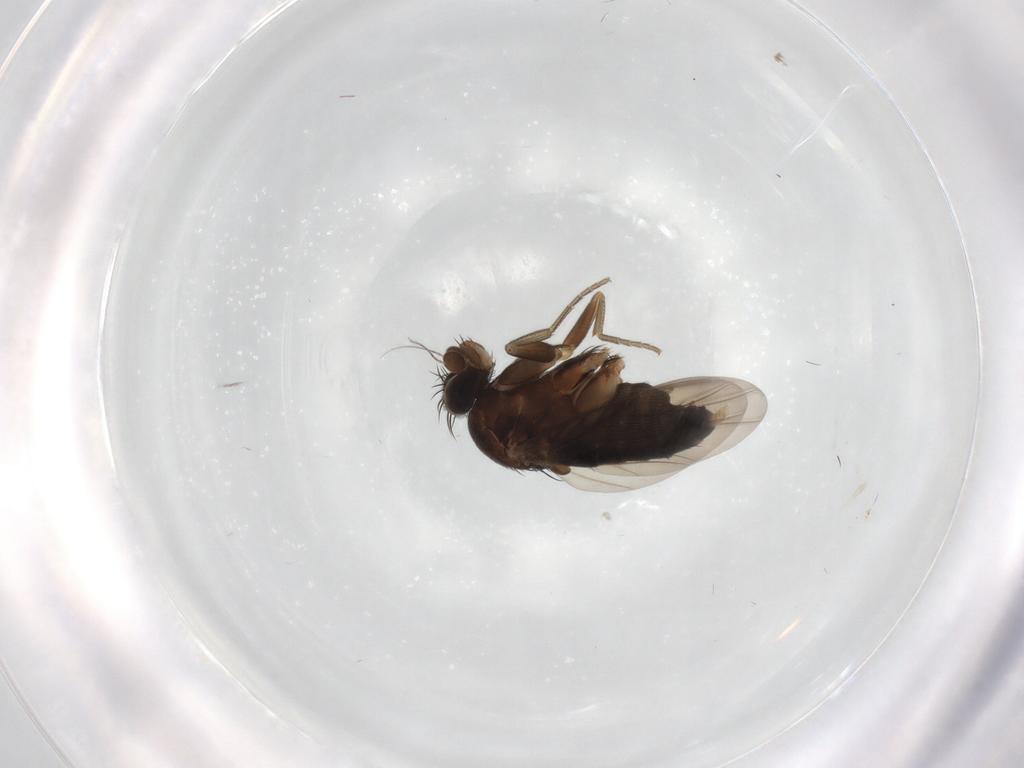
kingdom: Animalia
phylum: Arthropoda
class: Insecta
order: Diptera
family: Phoridae
